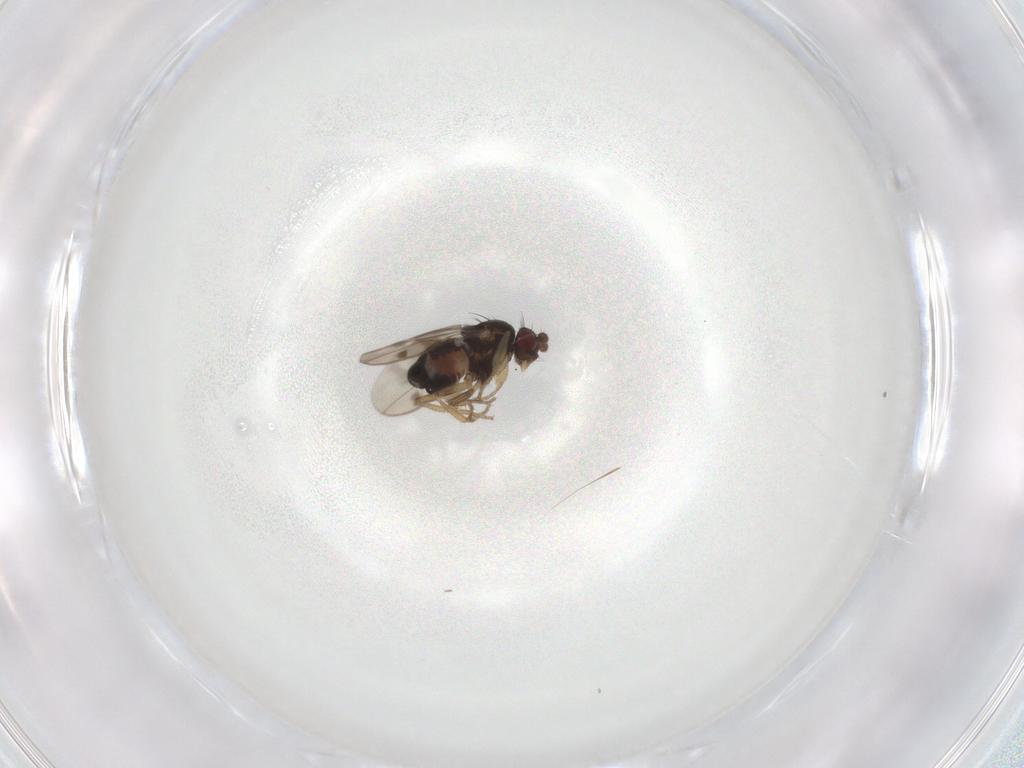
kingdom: Animalia
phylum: Arthropoda
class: Insecta
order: Diptera
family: Sphaeroceridae
